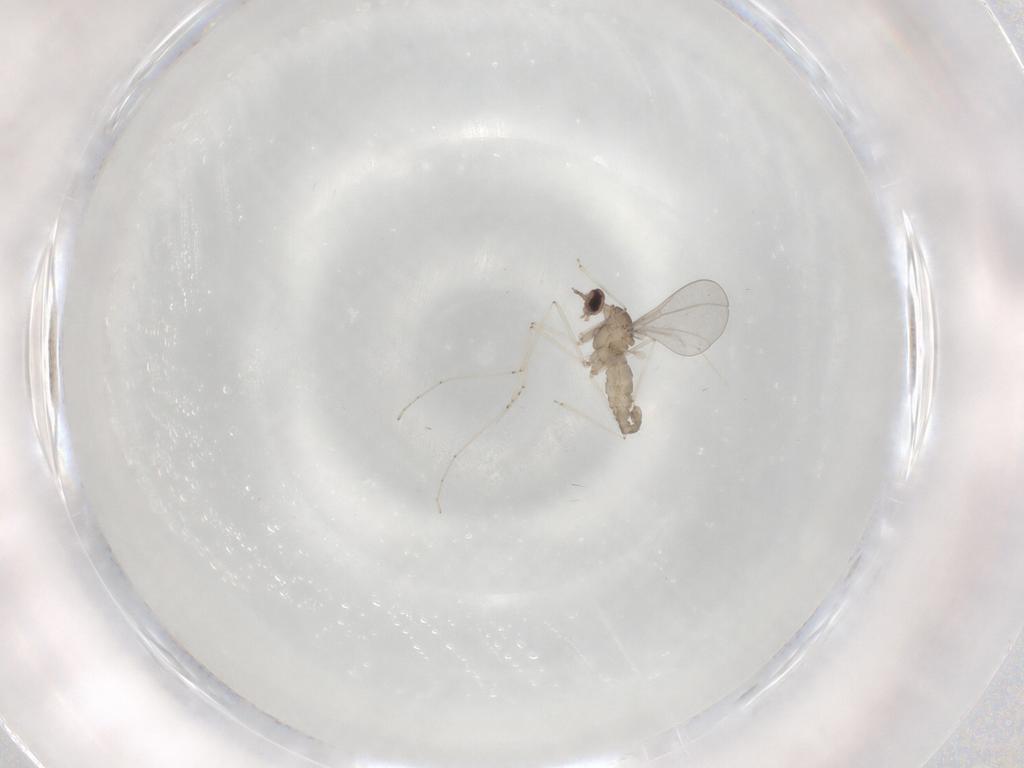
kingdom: Animalia
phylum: Arthropoda
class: Insecta
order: Diptera
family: Cecidomyiidae
